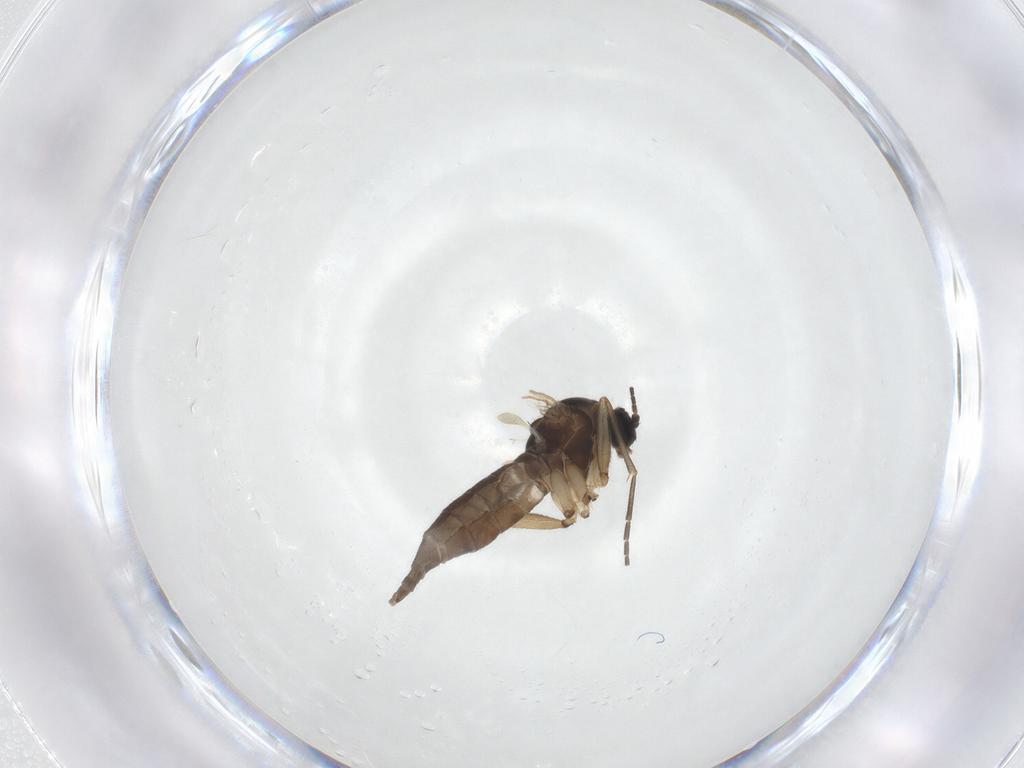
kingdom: Animalia
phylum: Arthropoda
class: Insecta
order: Diptera
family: Sciaridae
